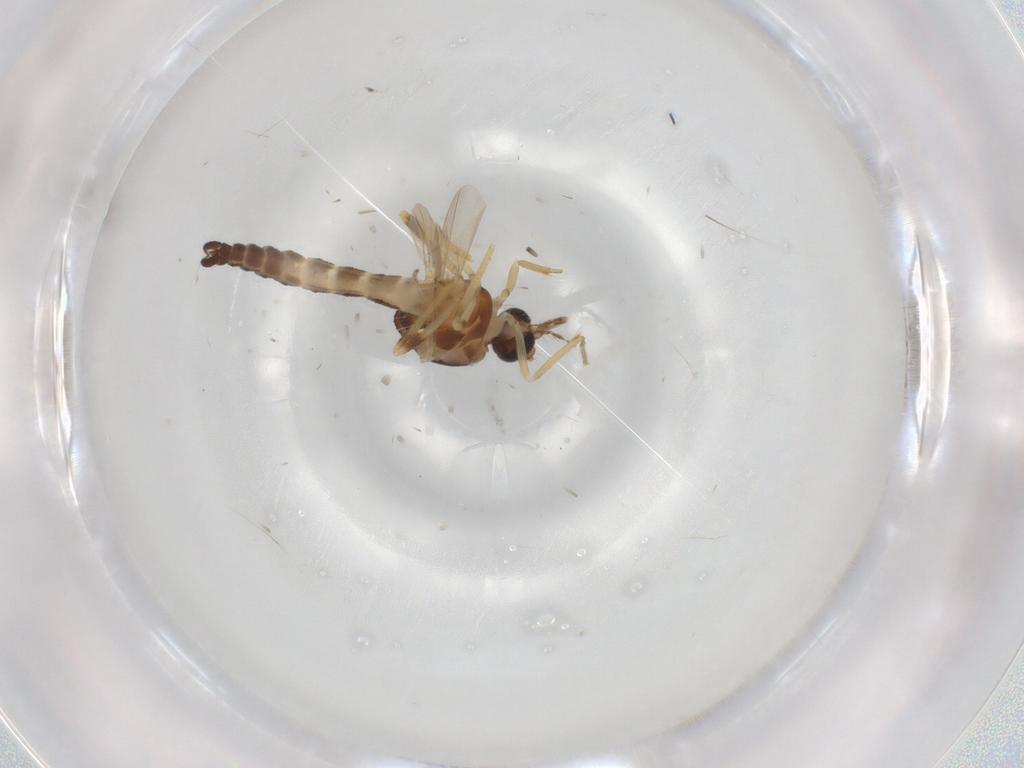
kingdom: Animalia
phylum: Arthropoda
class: Insecta
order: Diptera
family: Ceratopogonidae
